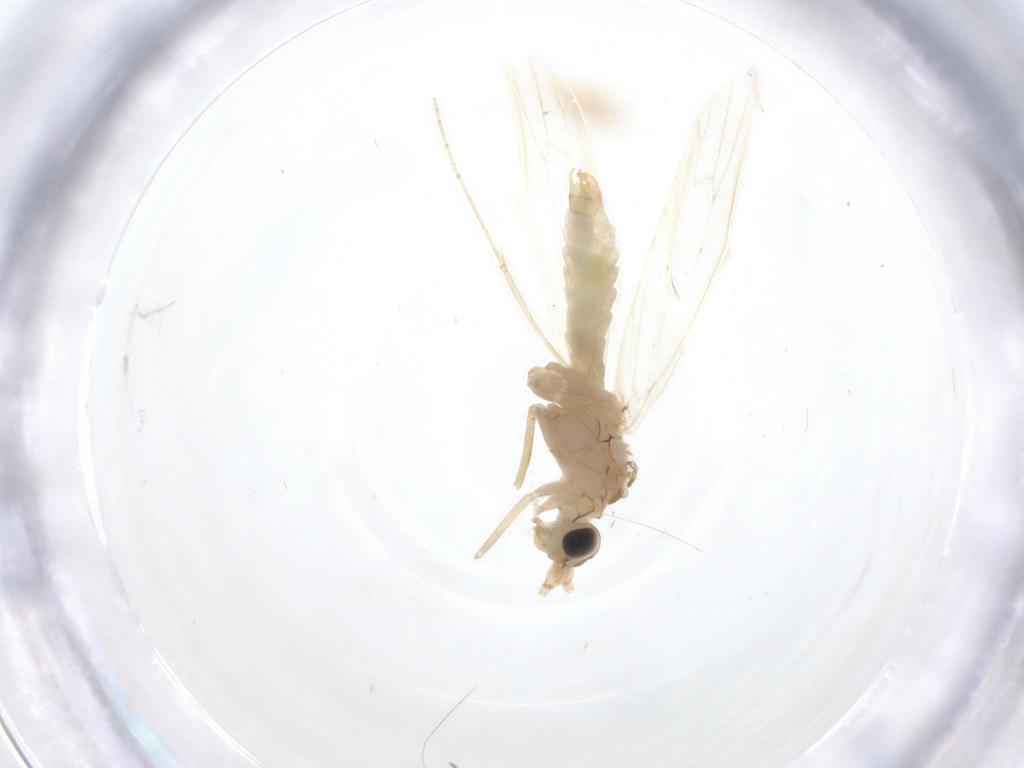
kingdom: Animalia
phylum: Arthropoda
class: Insecta
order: Trichoptera
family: Leptoceridae
